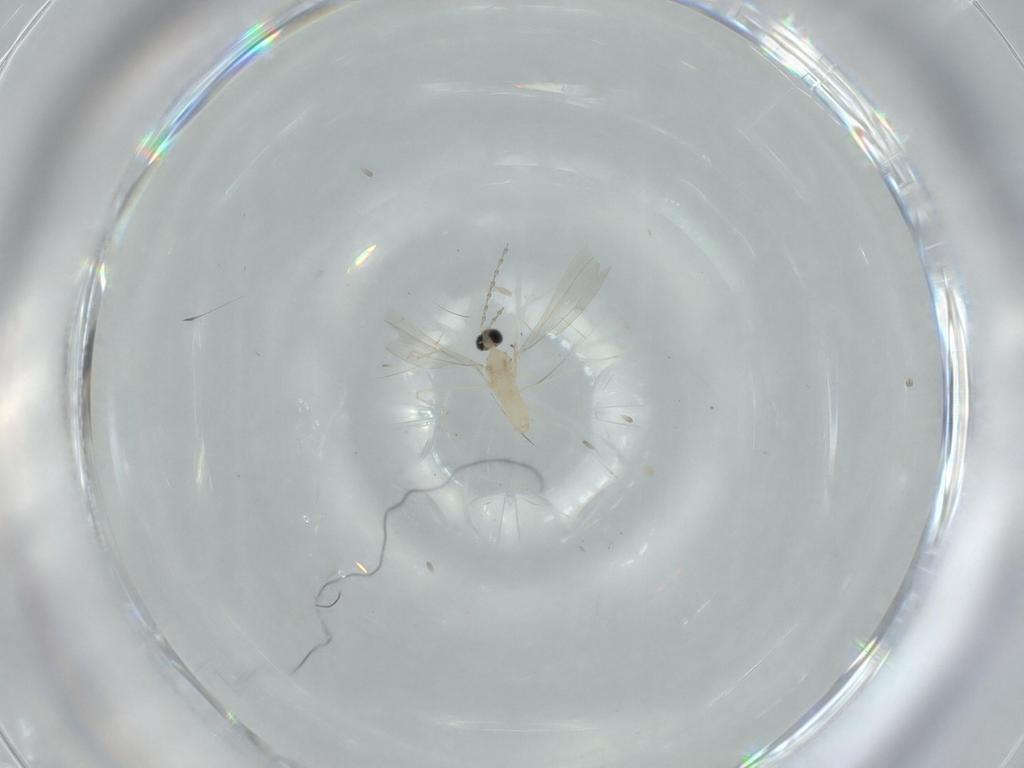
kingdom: Animalia
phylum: Arthropoda
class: Insecta
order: Diptera
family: Cecidomyiidae
